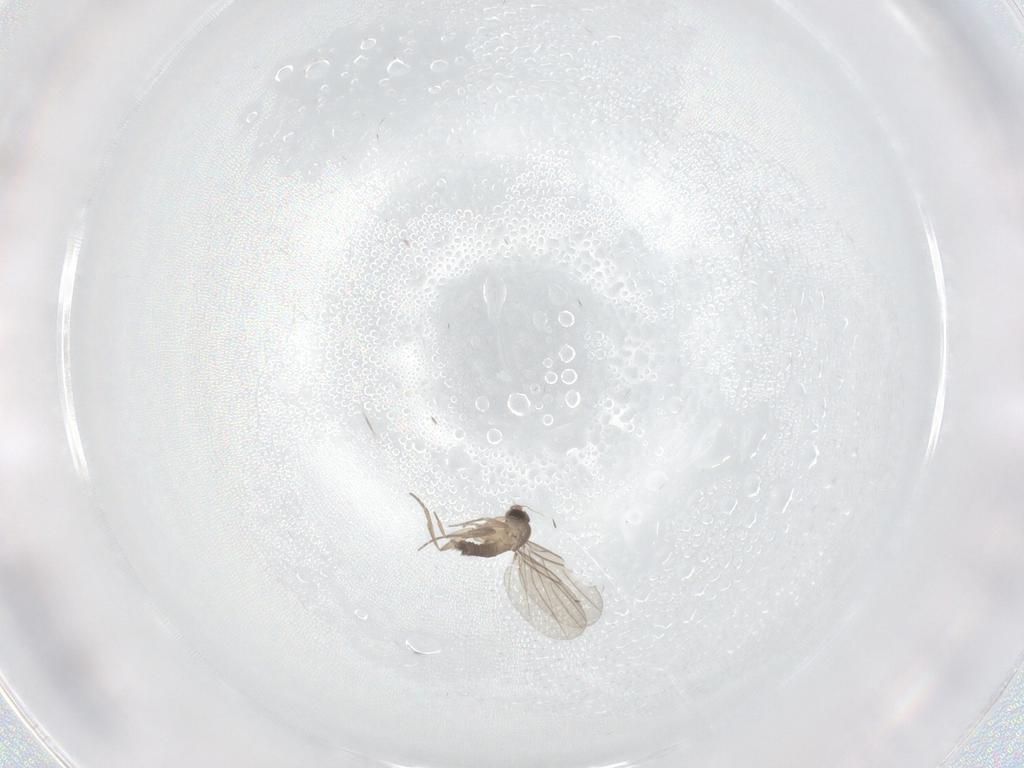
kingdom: Animalia
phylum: Arthropoda
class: Insecta
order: Diptera
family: Phoridae
